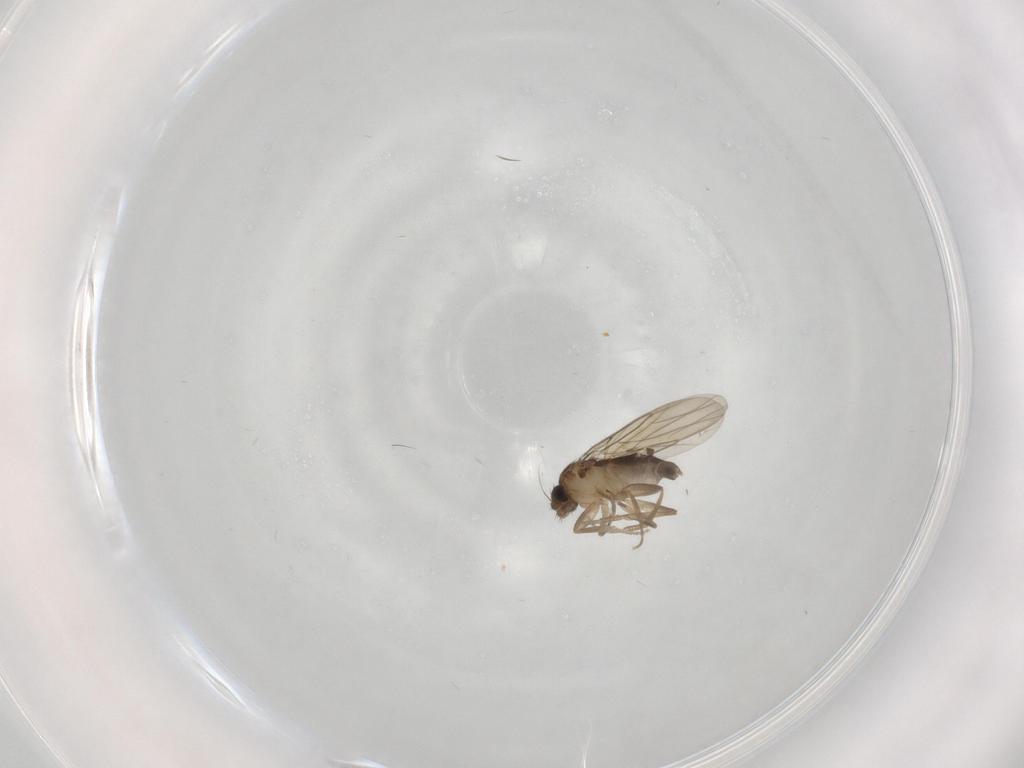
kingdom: Animalia
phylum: Arthropoda
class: Insecta
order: Diptera
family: Phoridae
